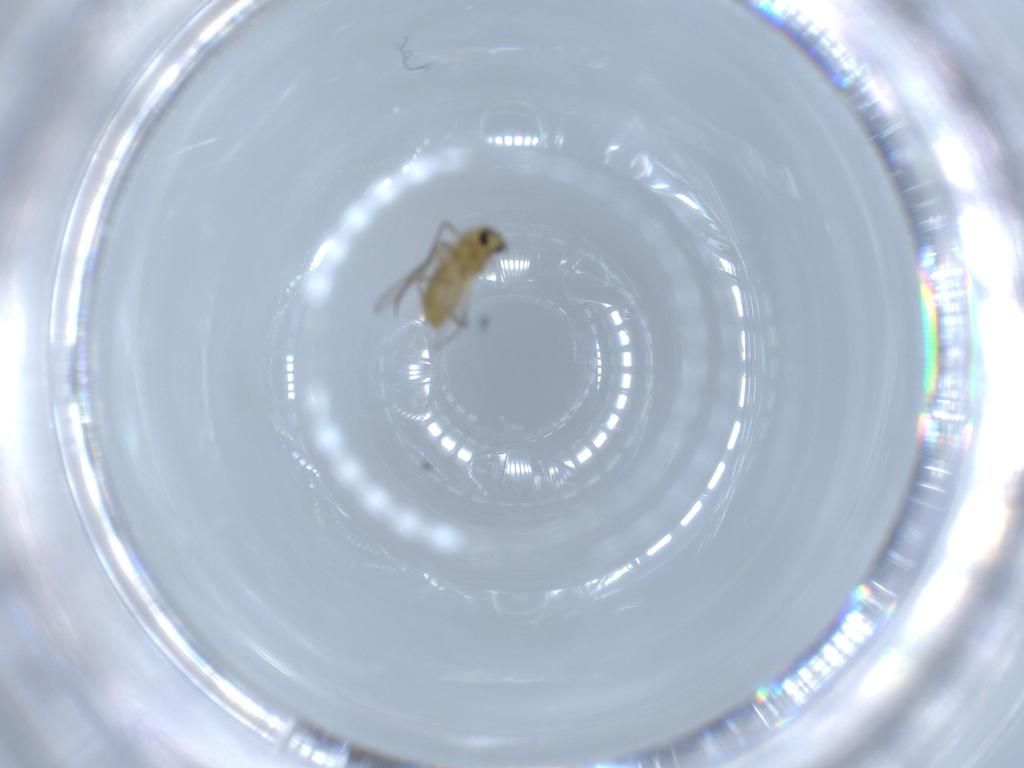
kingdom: Animalia
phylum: Arthropoda
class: Insecta
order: Diptera
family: Chironomidae
